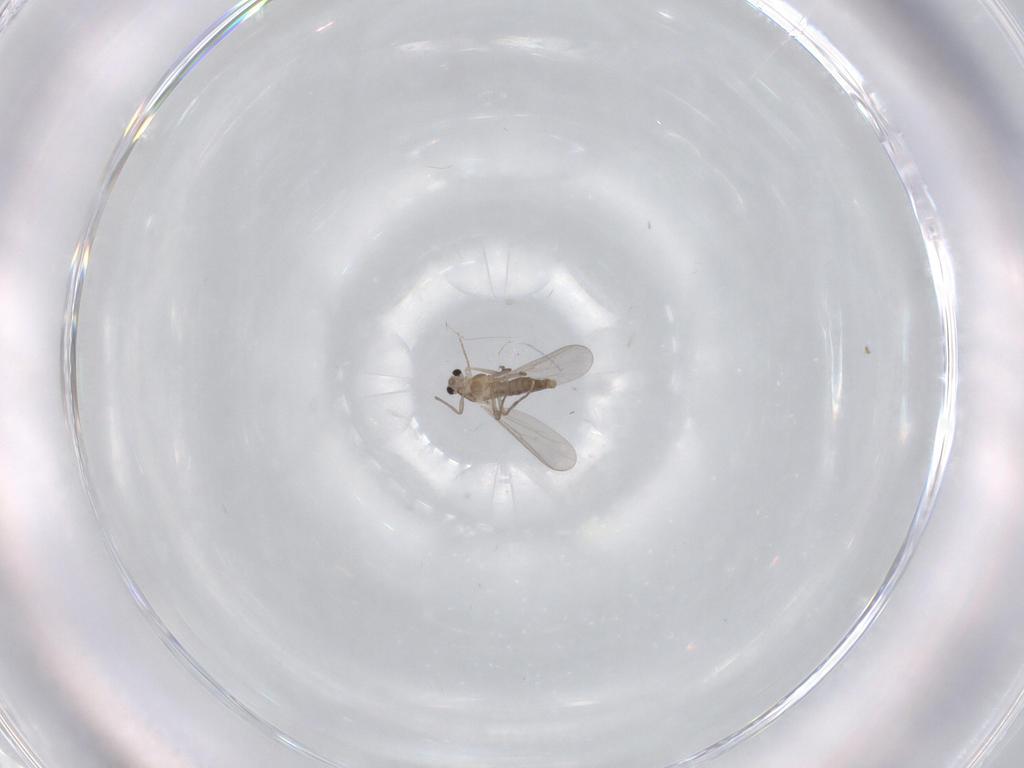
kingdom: Animalia
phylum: Arthropoda
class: Insecta
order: Diptera
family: Chironomidae
